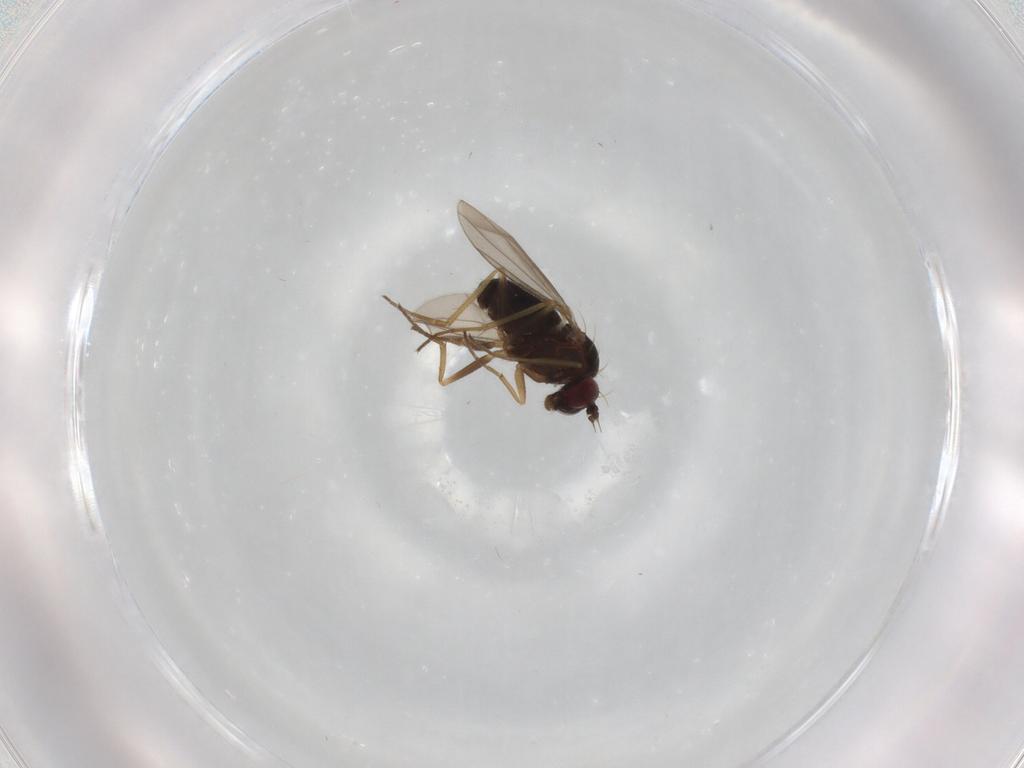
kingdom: Animalia
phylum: Arthropoda
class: Insecta
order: Diptera
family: Dolichopodidae
